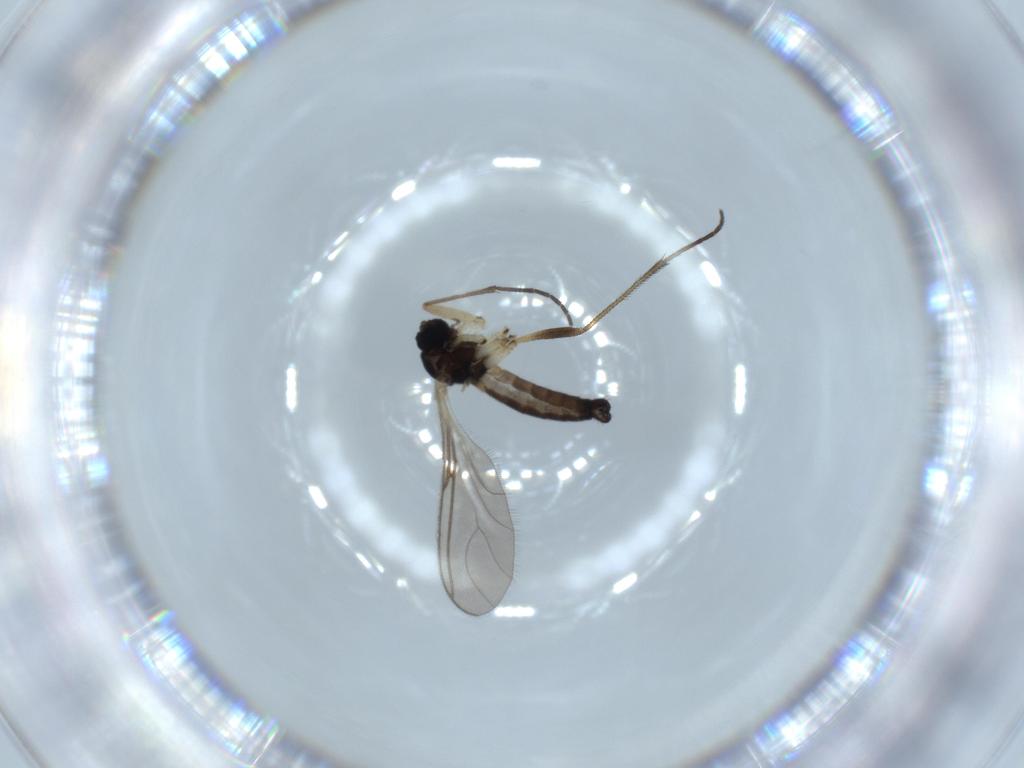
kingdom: Animalia
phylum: Arthropoda
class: Insecta
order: Diptera
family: Sciaridae
